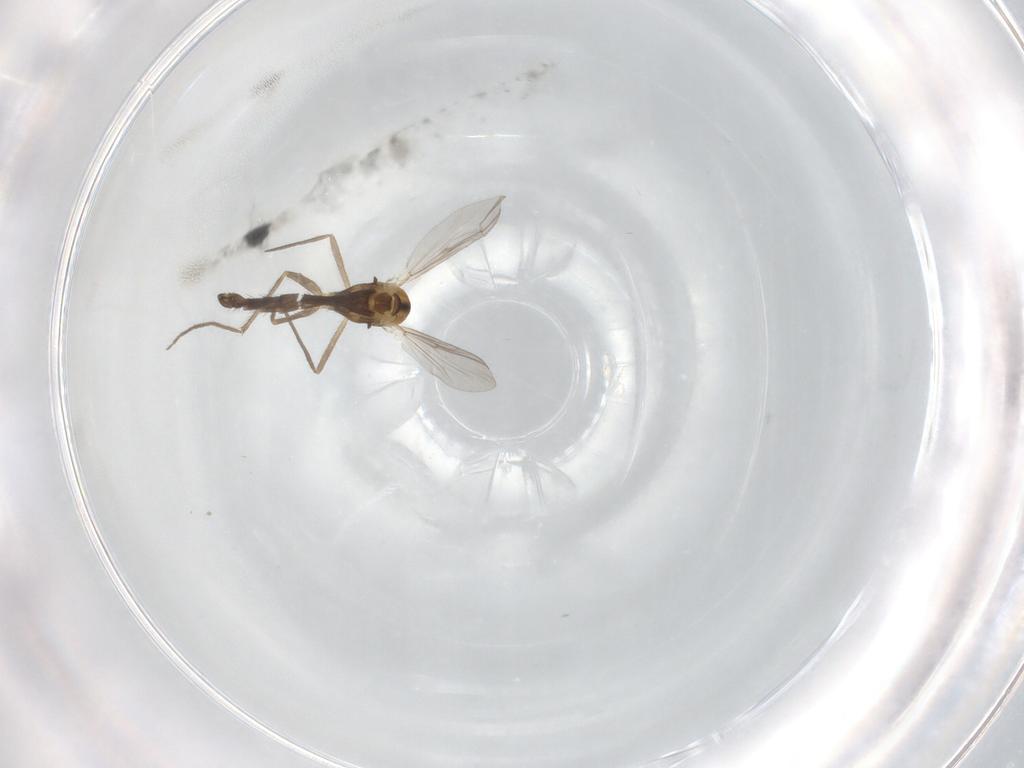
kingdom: Animalia
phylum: Arthropoda
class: Insecta
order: Diptera
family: Chironomidae
